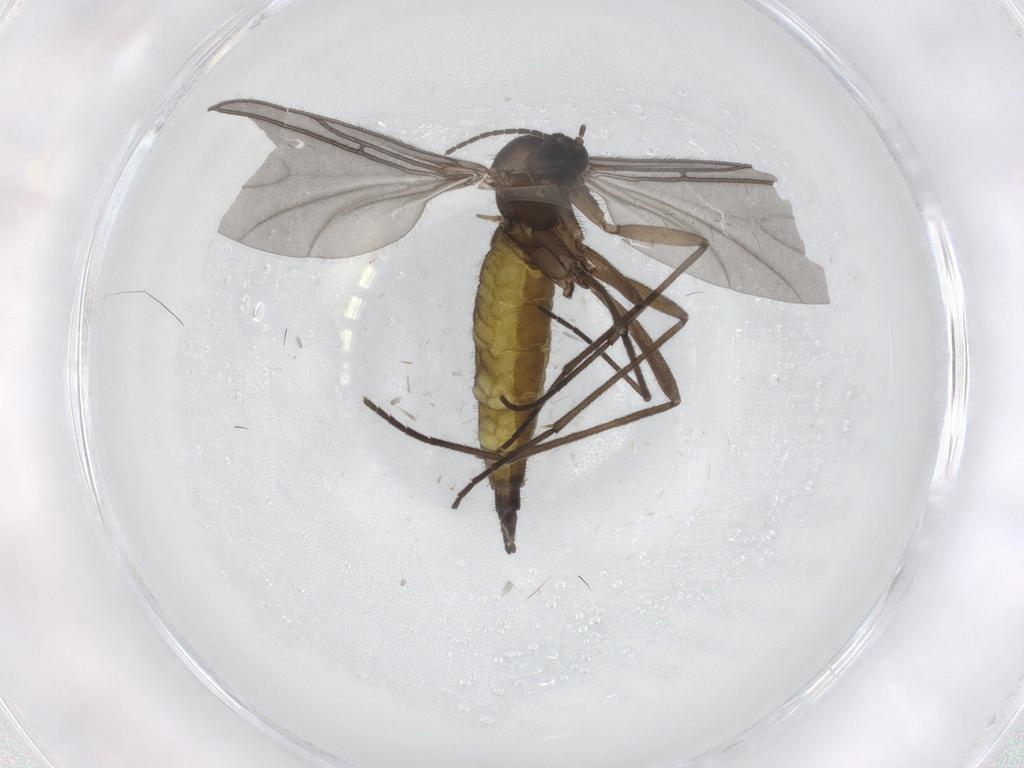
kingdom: Animalia
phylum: Arthropoda
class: Insecta
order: Diptera
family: Sciaridae
